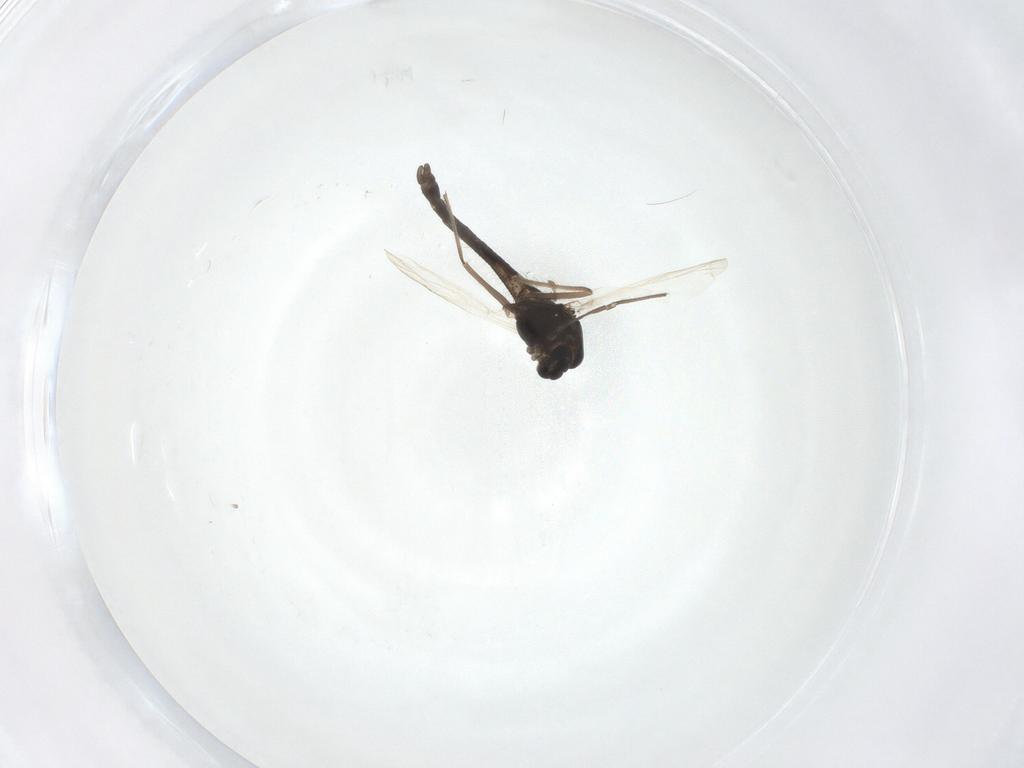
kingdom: Animalia
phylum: Arthropoda
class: Insecta
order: Diptera
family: Chironomidae
